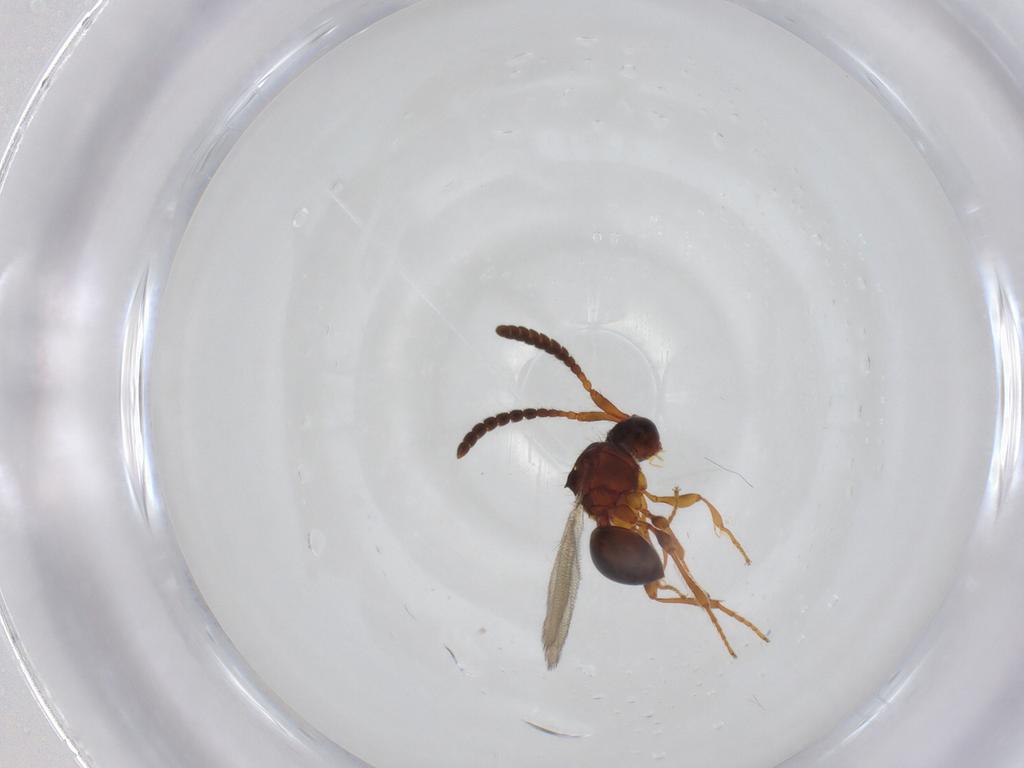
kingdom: Animalia
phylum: Arthropoda
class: Insecta
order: Hymenoptera
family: Diapriidae
